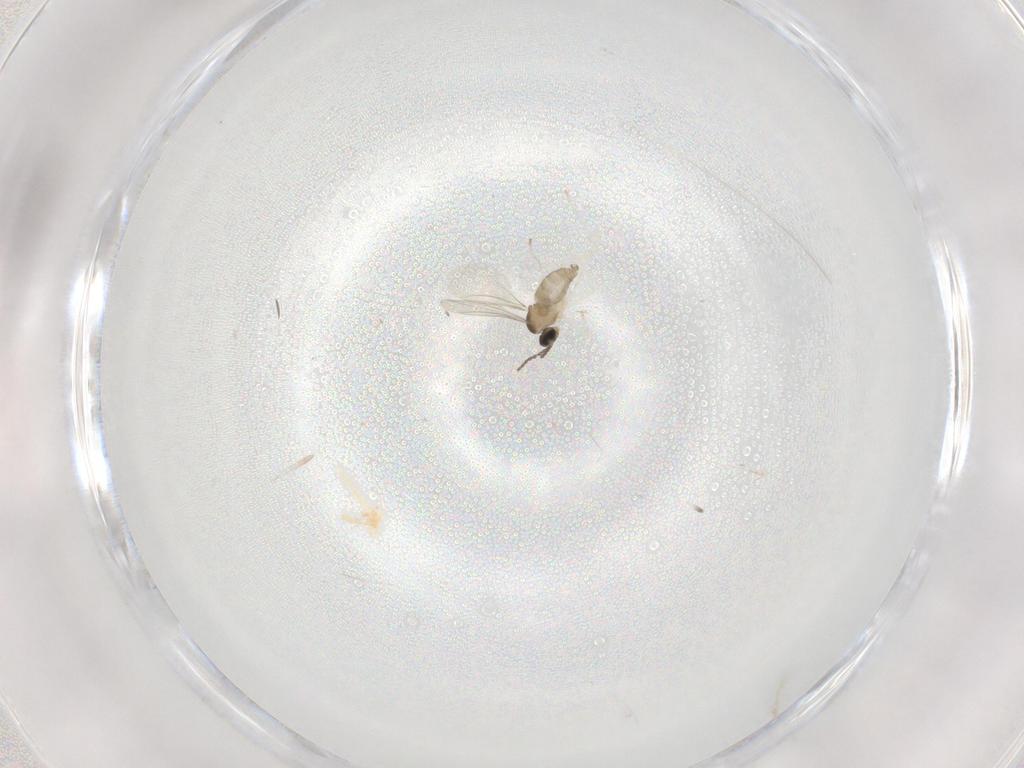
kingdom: Animalia
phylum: Arthropoda
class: Insecta
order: Diptera
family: Cecidomyiidae
